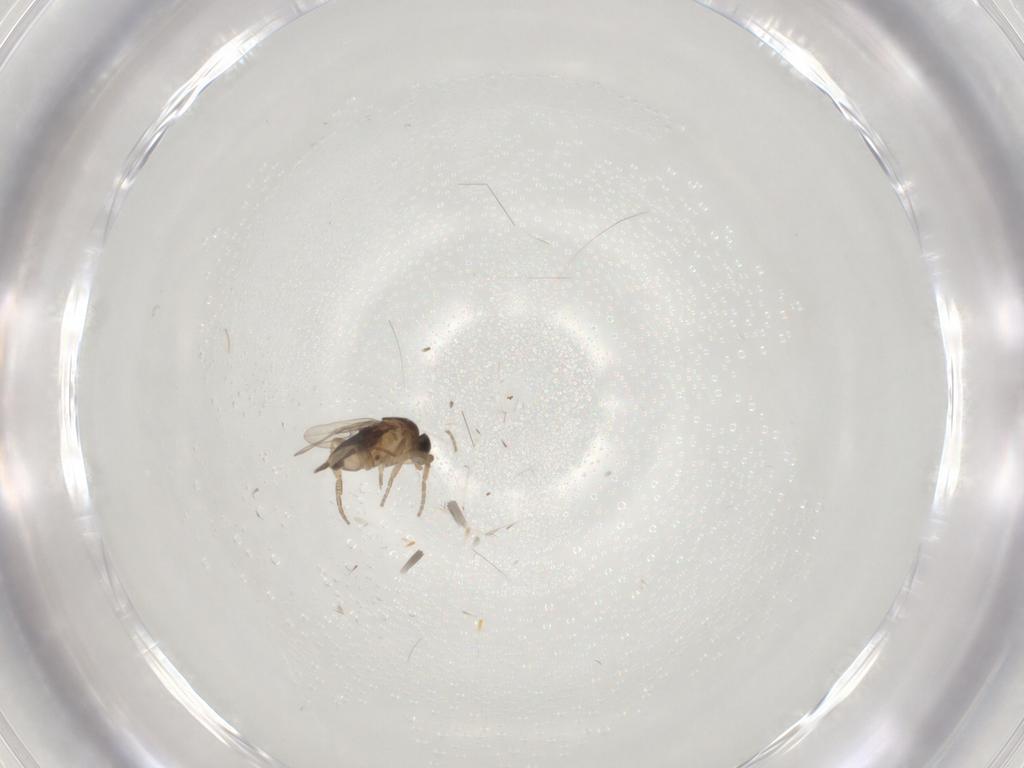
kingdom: Animalia
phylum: Arthropoda
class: Insecta
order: Diptera
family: Phoridae
